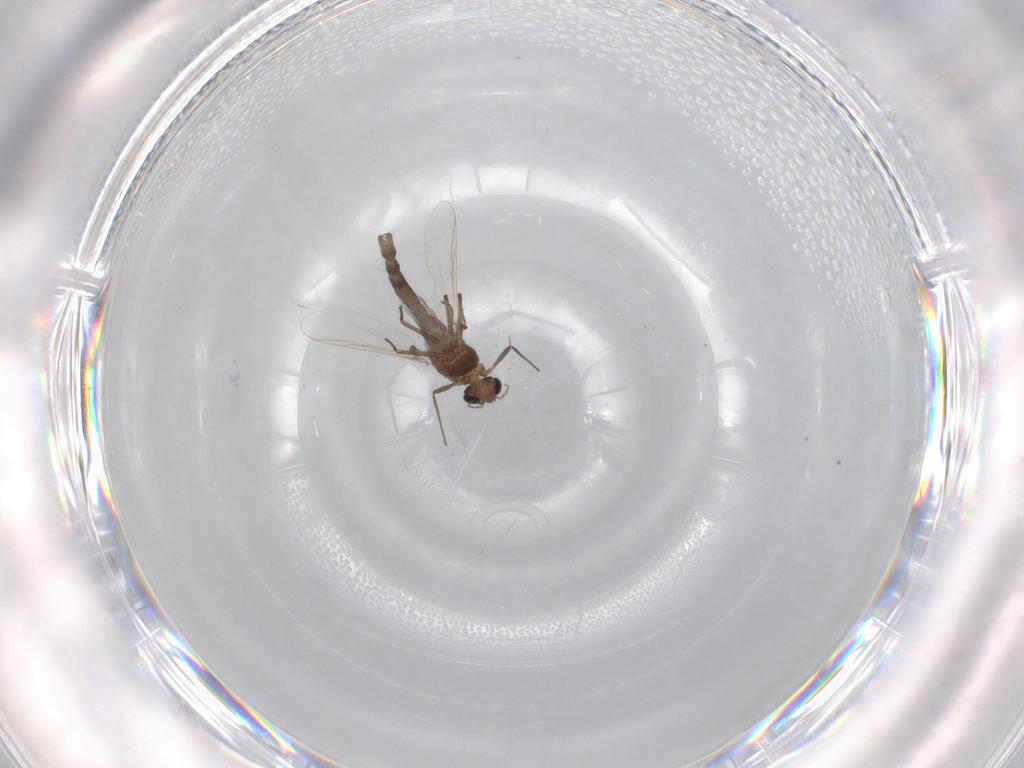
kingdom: Animalia
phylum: Arthropoda
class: Insecta
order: Diptera
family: Chironomidae
